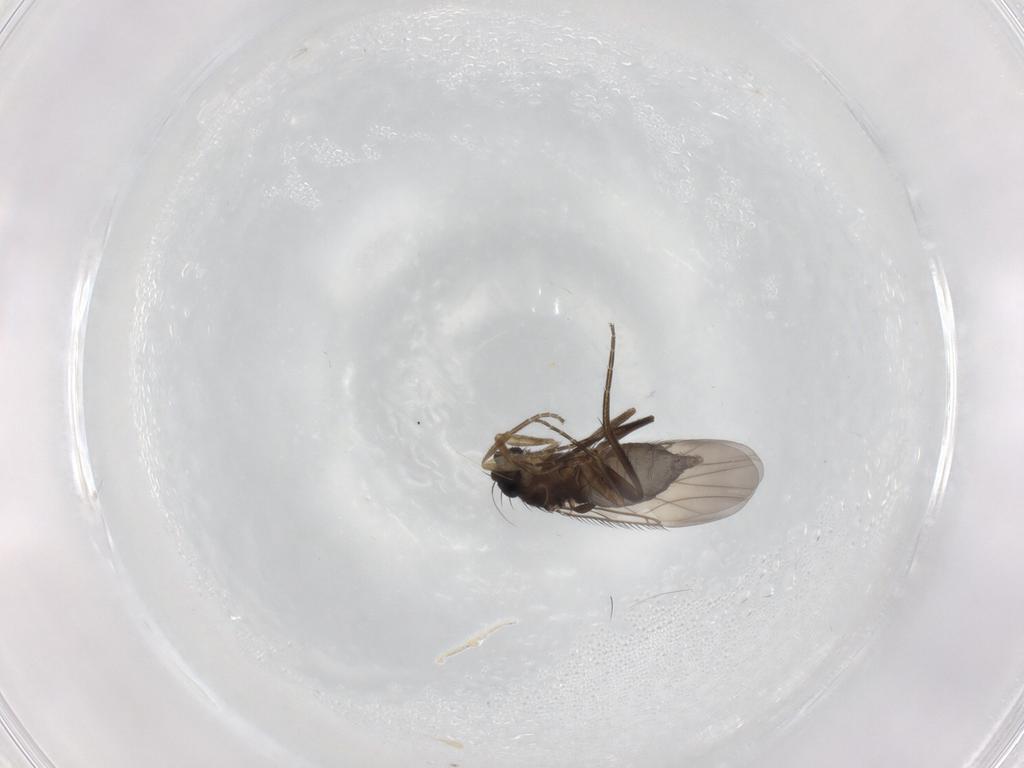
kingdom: Animalia
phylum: Arthropoda
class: Insecta
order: Diptera
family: Phoridae
